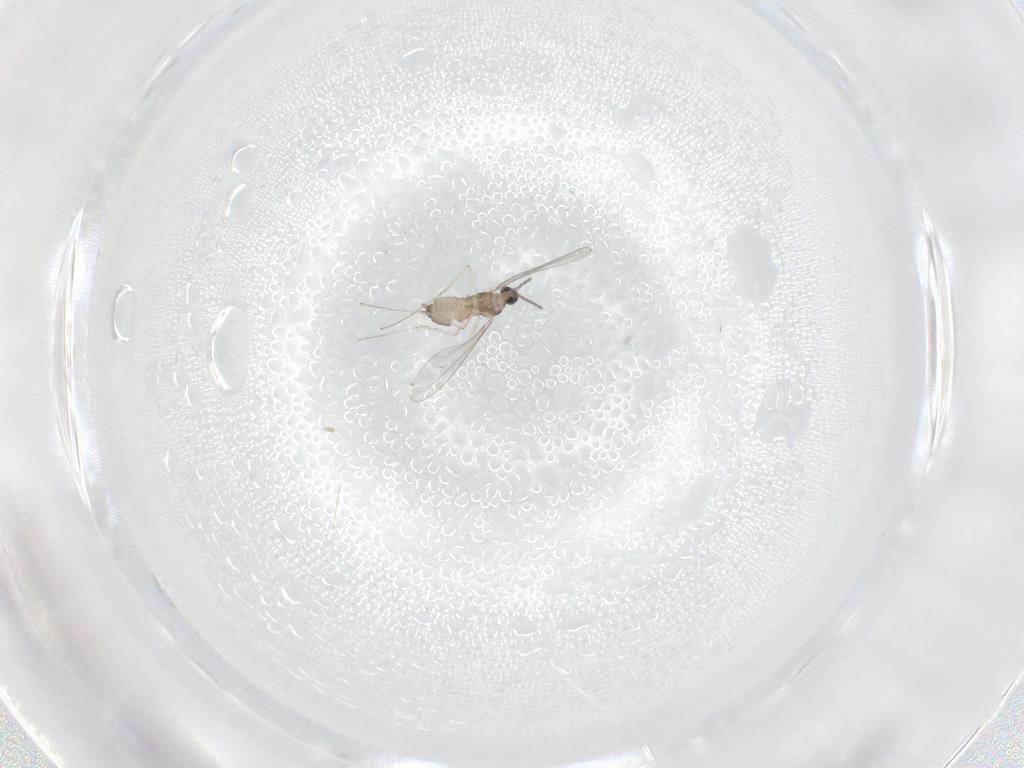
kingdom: Animalia
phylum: Arthropoda
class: Insecta
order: Diptera
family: Cecidomyiidae
